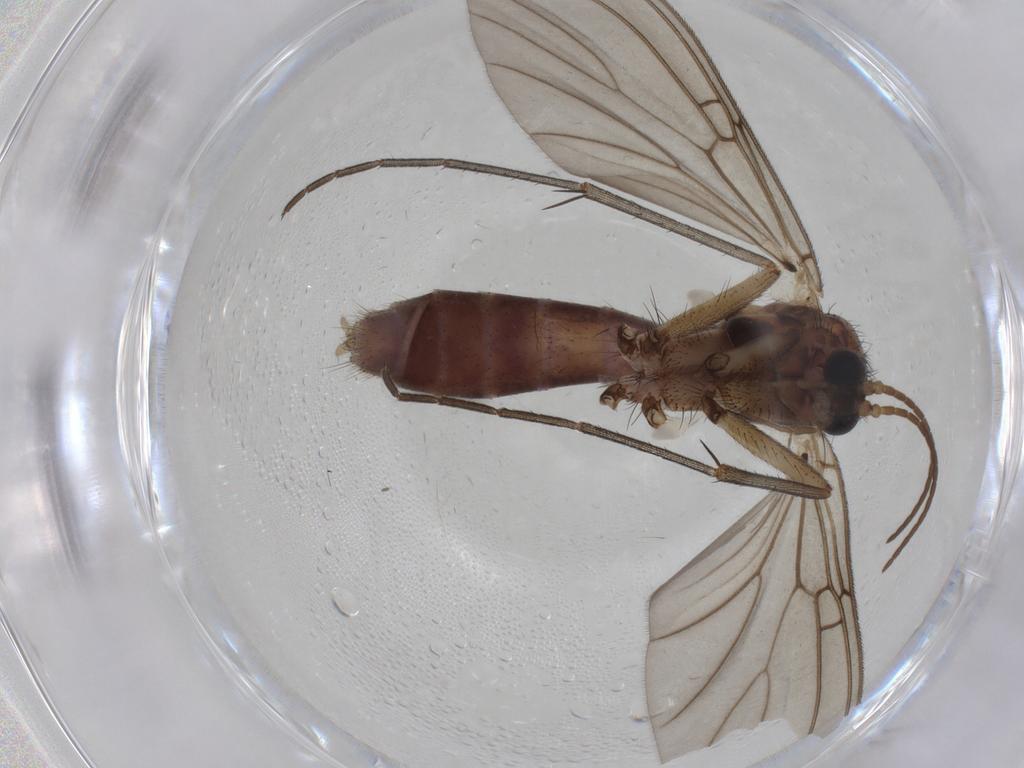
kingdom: Animalia
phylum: Arthropoda
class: Insecta
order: Diptera
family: Mycetophilidae
